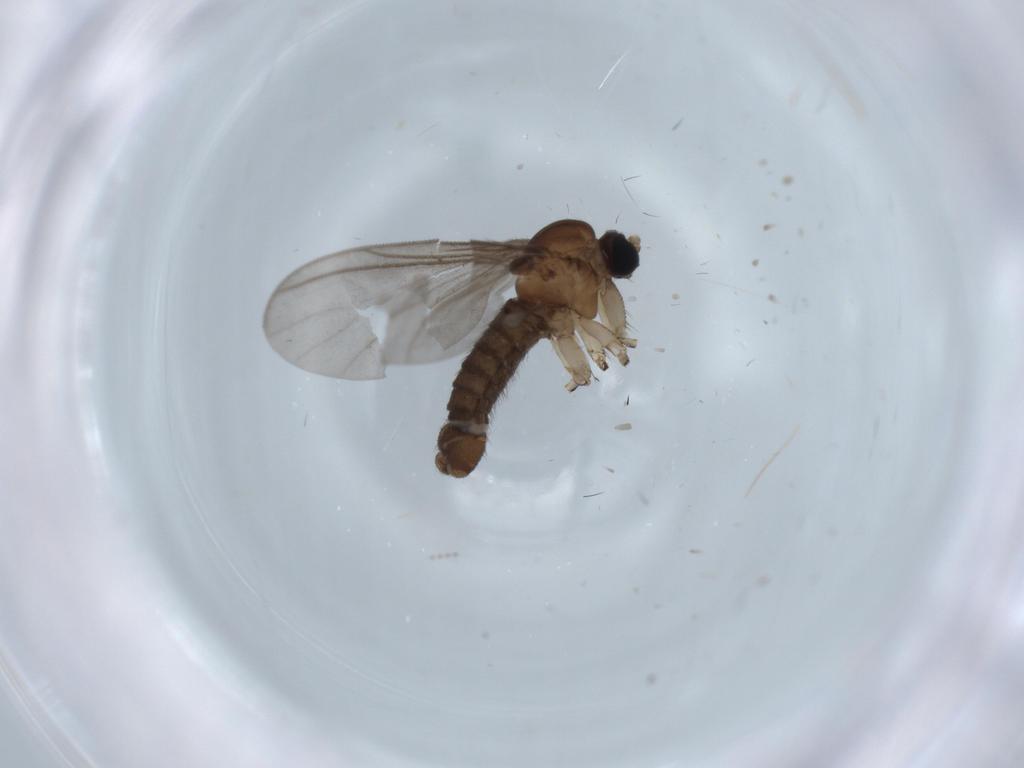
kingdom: Animalia
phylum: Arthropoda
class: Insecta
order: Diptera
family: Sciaridae
